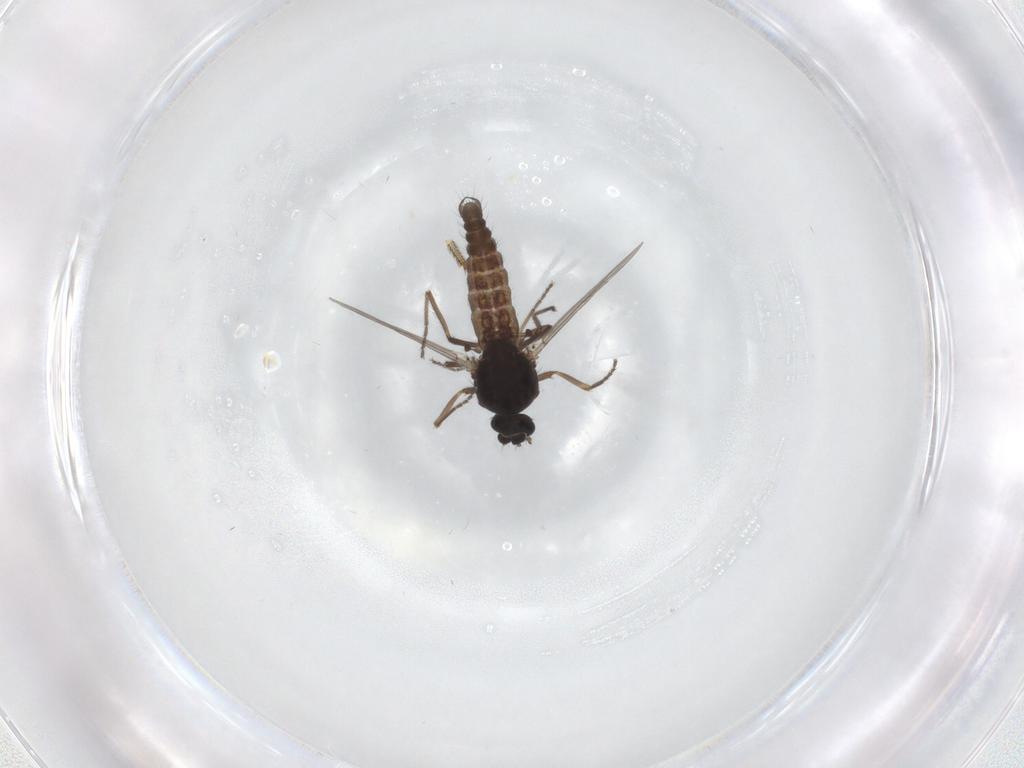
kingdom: Animalia
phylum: Arthropoda
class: Insecta
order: Diptera
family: Ceratopogonidae
